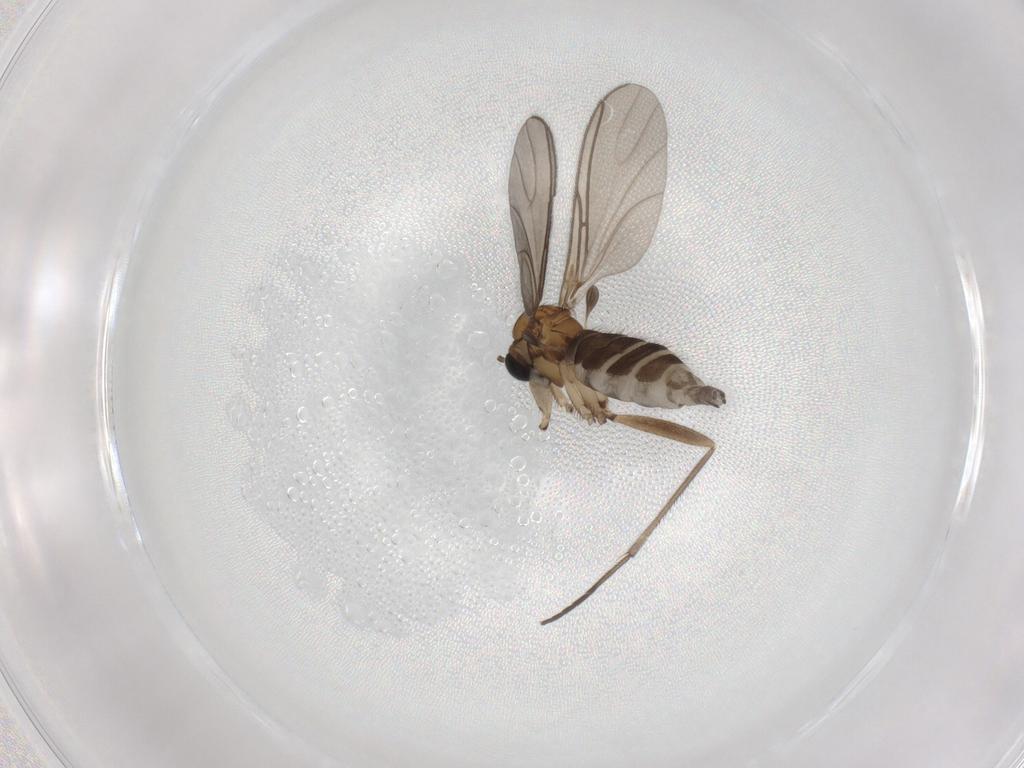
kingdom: Animalia
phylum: Arthropoda
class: Insecta
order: Diptera
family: Sciaridae
